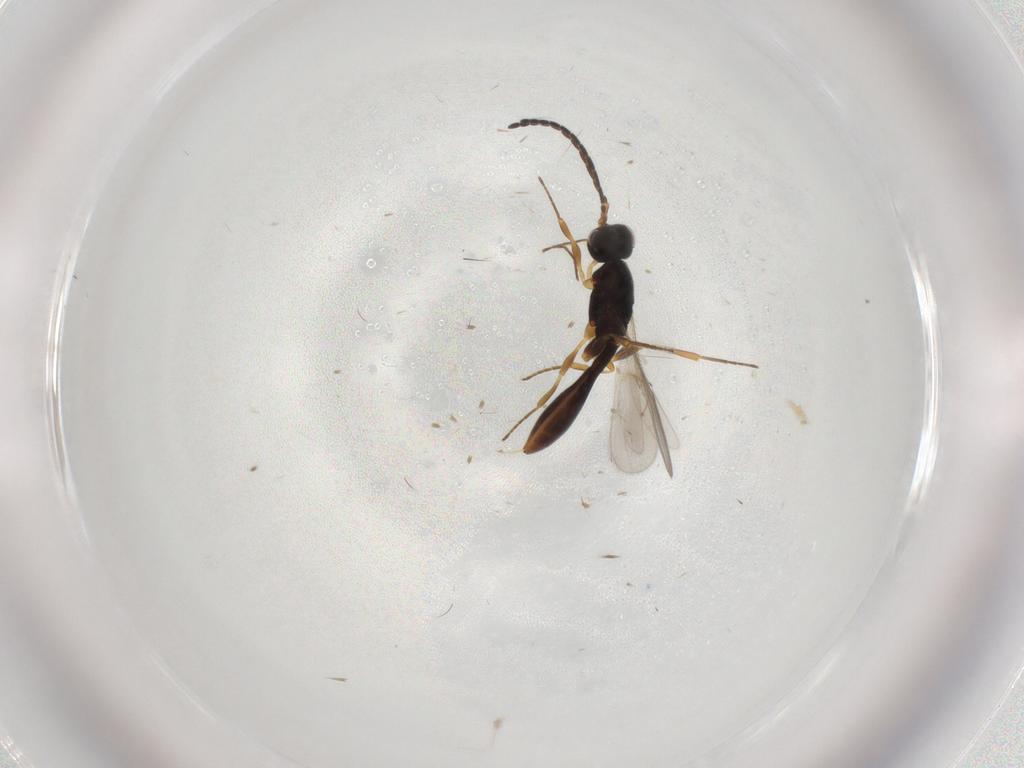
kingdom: Animalia
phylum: Arthropoda
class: Insecta
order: Hymenoptera
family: Scelionidae
